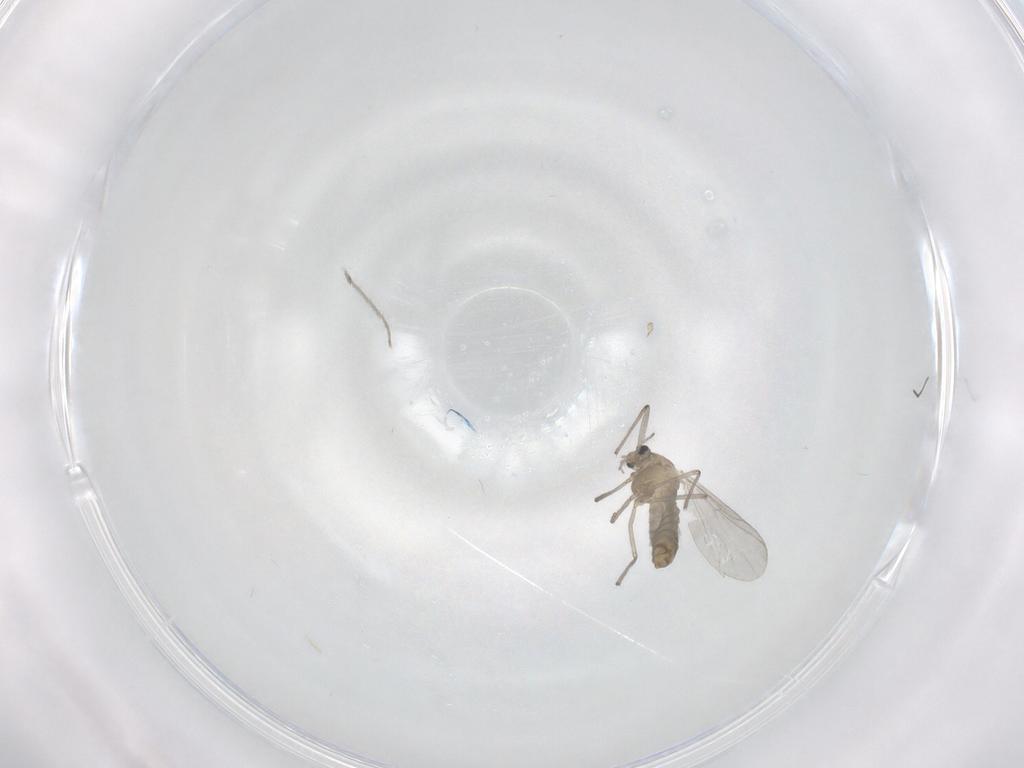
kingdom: Animalia
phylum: Arthropoda
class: Insecta
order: Diptera
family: Chironomidae
